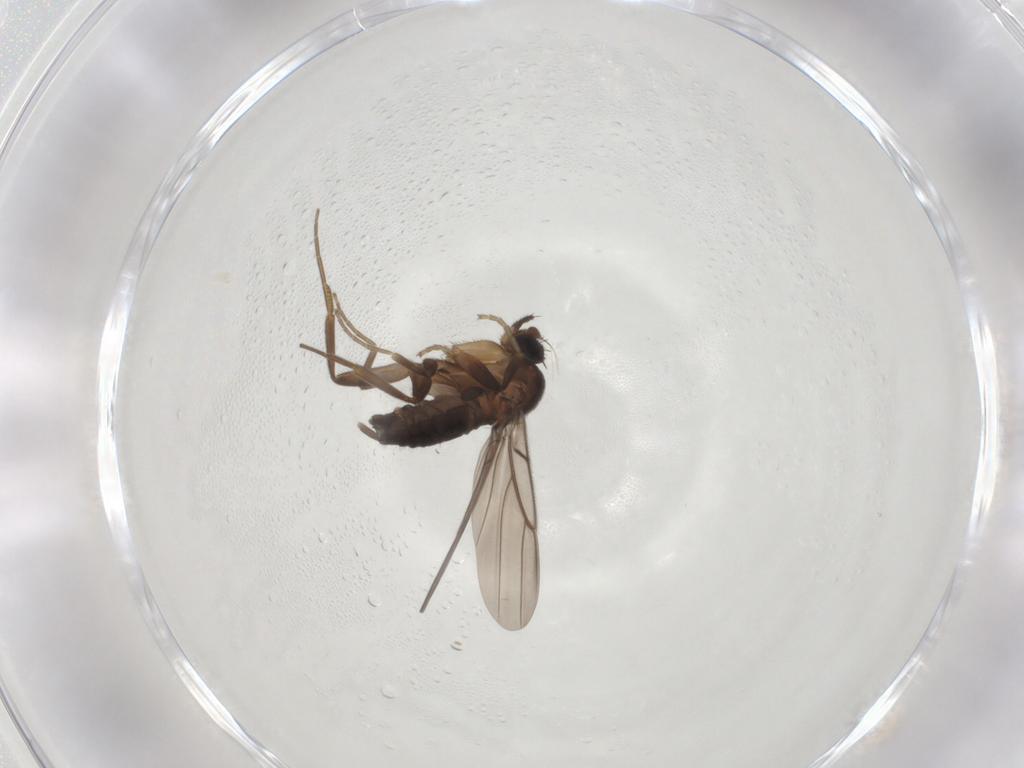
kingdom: Animalia
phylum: Arthropoda
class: Insecta
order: Diptera
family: Phoridae
